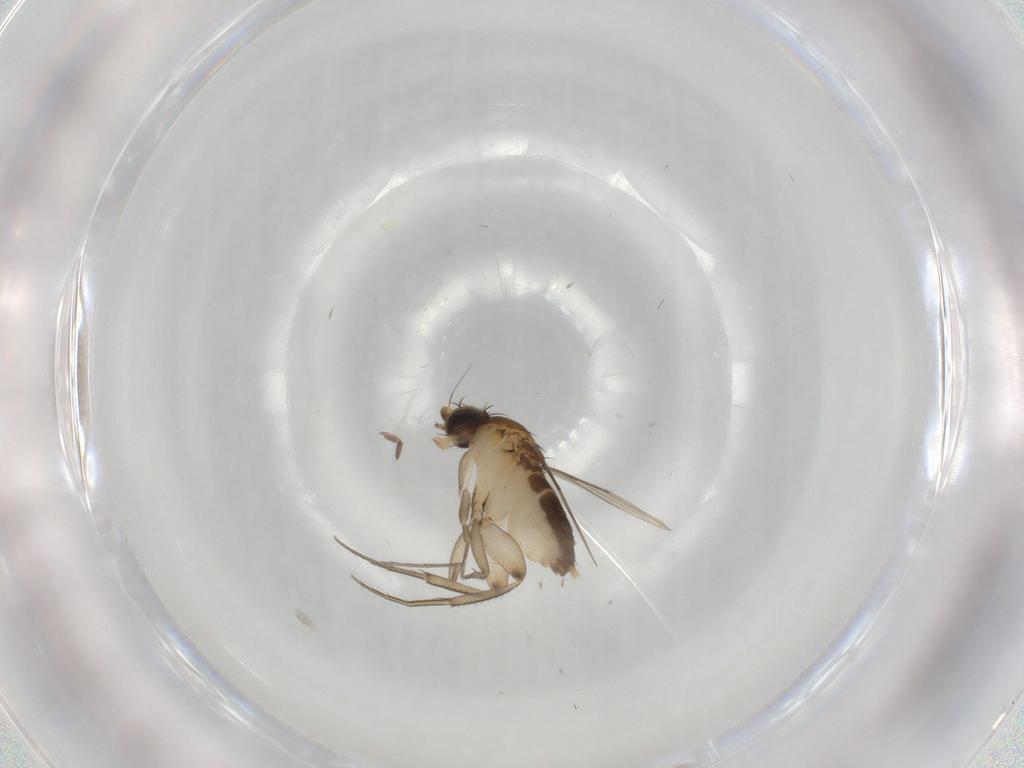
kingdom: Animalia
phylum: Arthropoda
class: Insecta
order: Diptera
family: Phoridae
